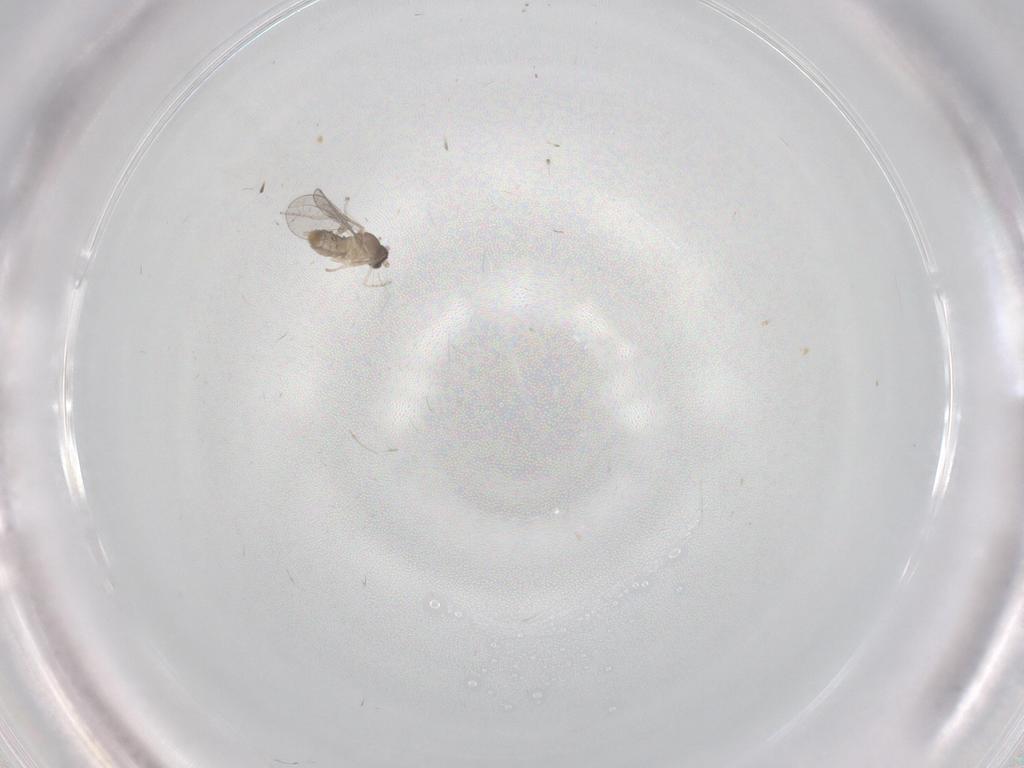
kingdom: Animalia
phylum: Arthropoda
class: Insecta
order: Diptera
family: Cecidomyiidae
